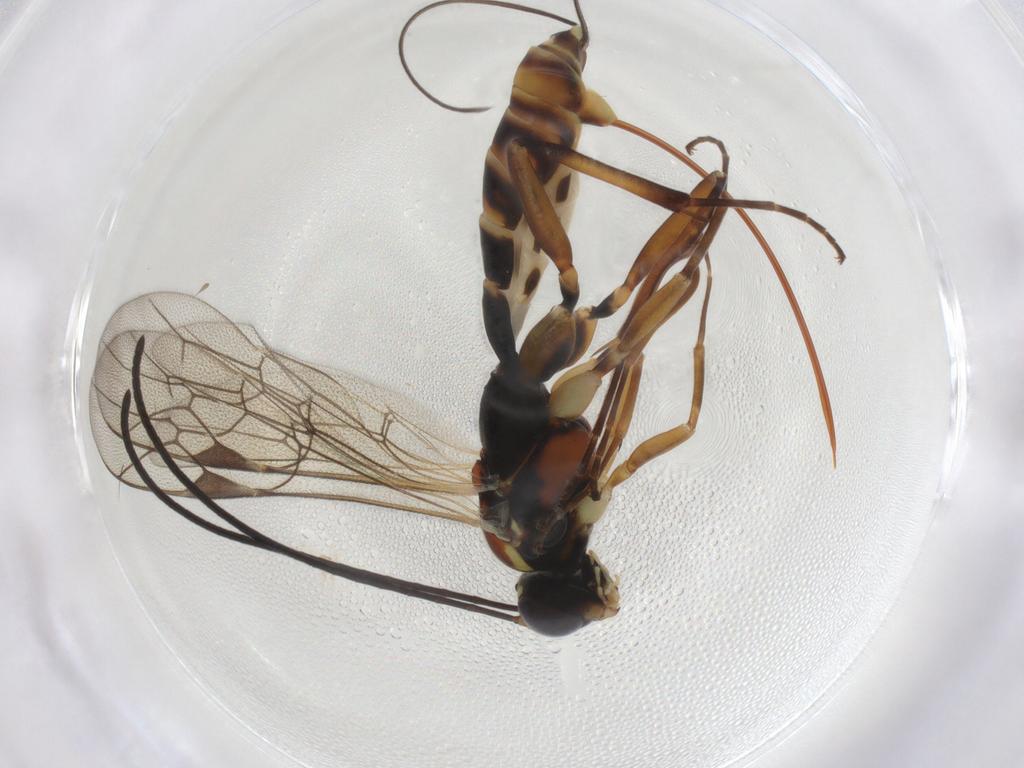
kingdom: Animalia
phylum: Arthropoda
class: Insecta
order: Hymenoptera
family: Ichneumonidae
